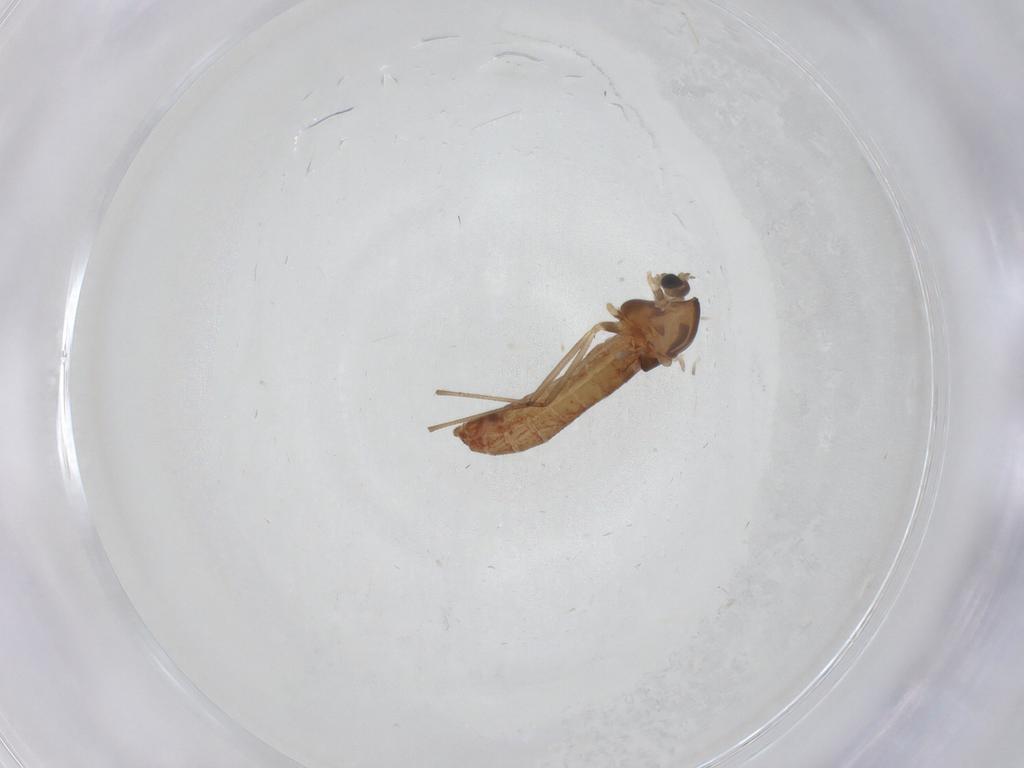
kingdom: Animalia
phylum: Arthropoda
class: Insecta
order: Diptera
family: Chironomidae
